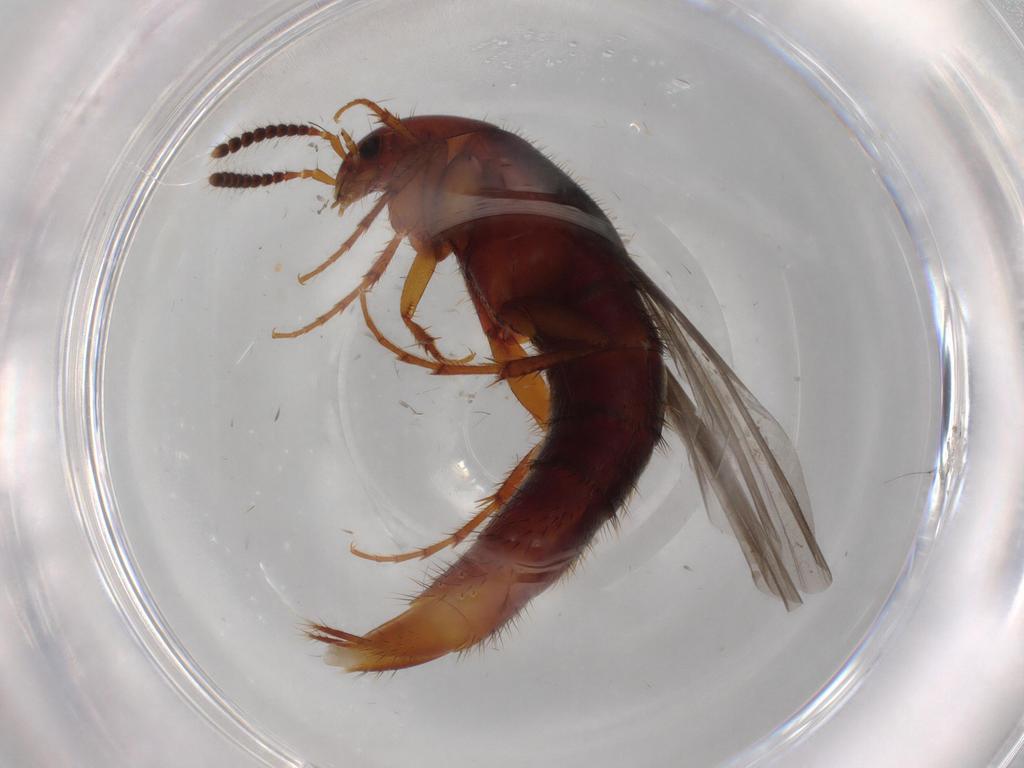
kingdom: Animalia
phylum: Arthropoda
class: Insecta
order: Coleoptera
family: Staphylinidae
